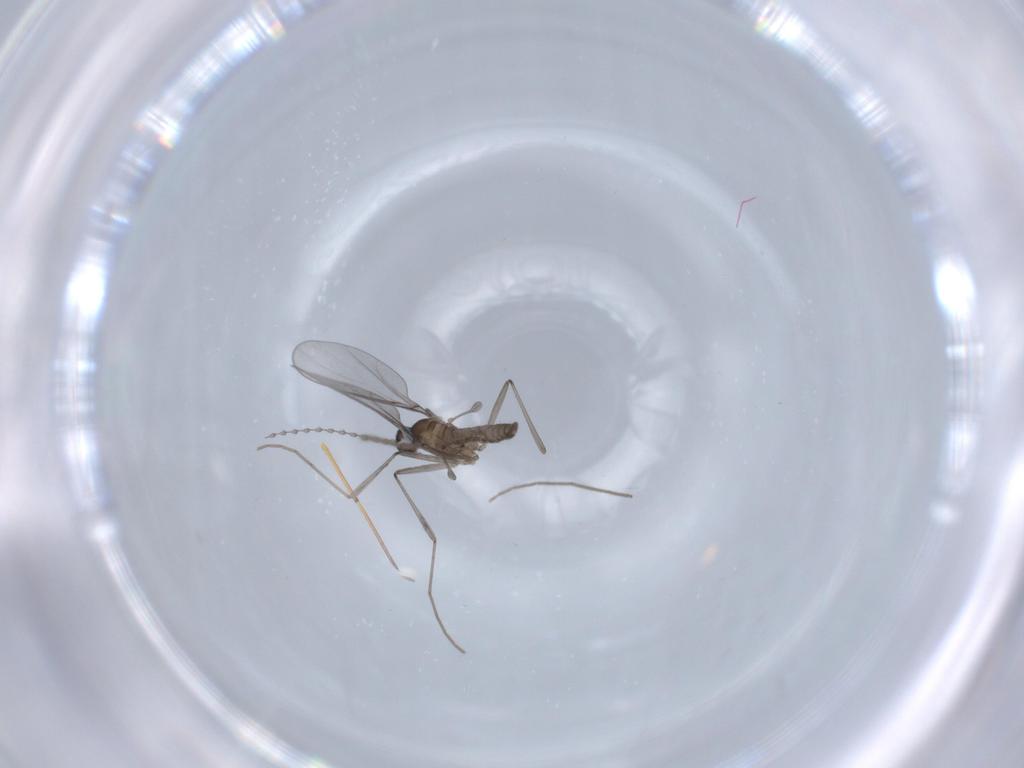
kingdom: Animalia
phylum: Arthropoda
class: Insecta
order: Diptera
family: Cecidomyiidae
